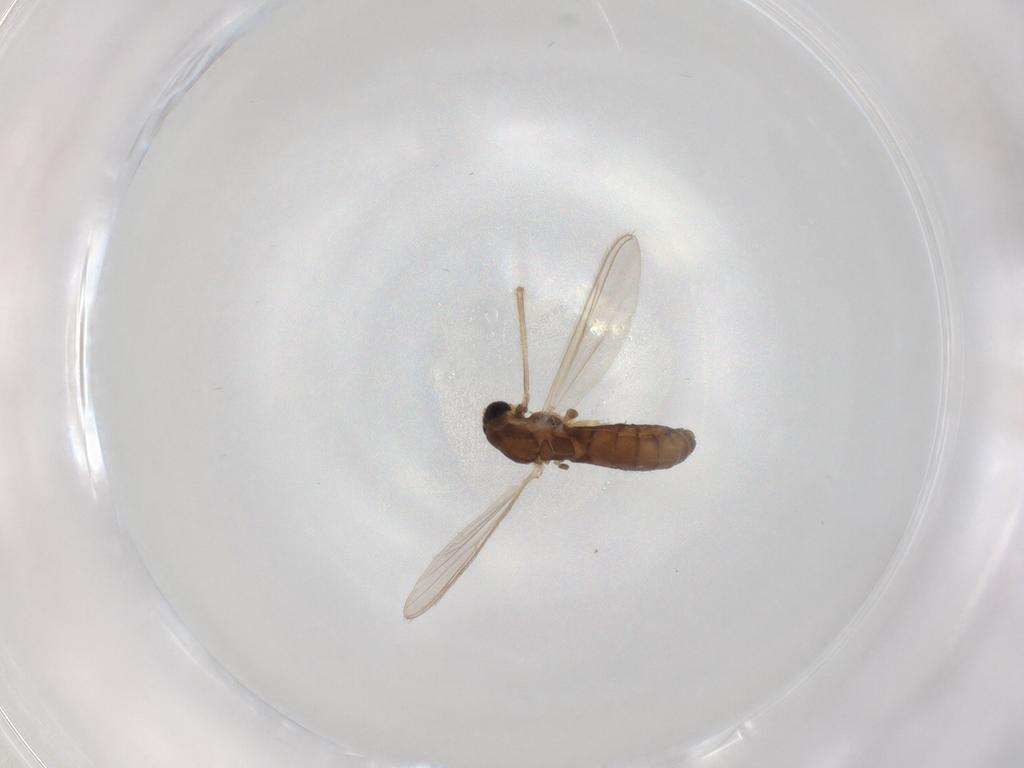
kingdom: Animalia
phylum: Arthropoda
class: Insecta
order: Diptera
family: Chironomidae
